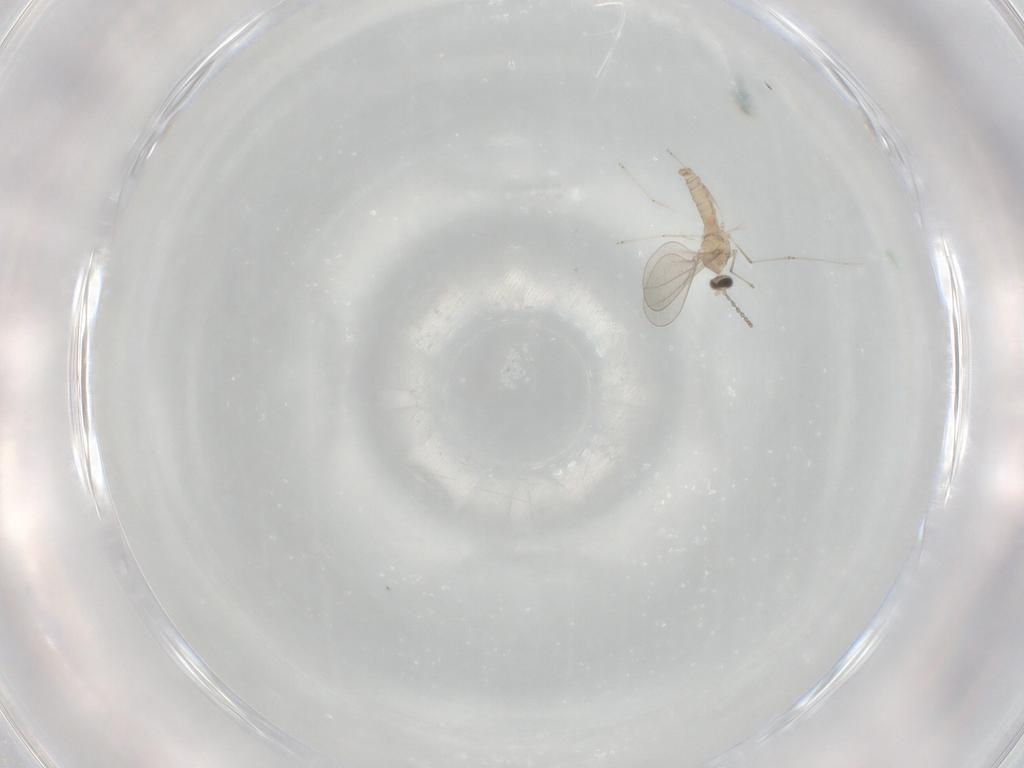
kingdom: Animalia
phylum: Arthropoda
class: Insecta
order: Diptera
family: Cecidomyiidae
